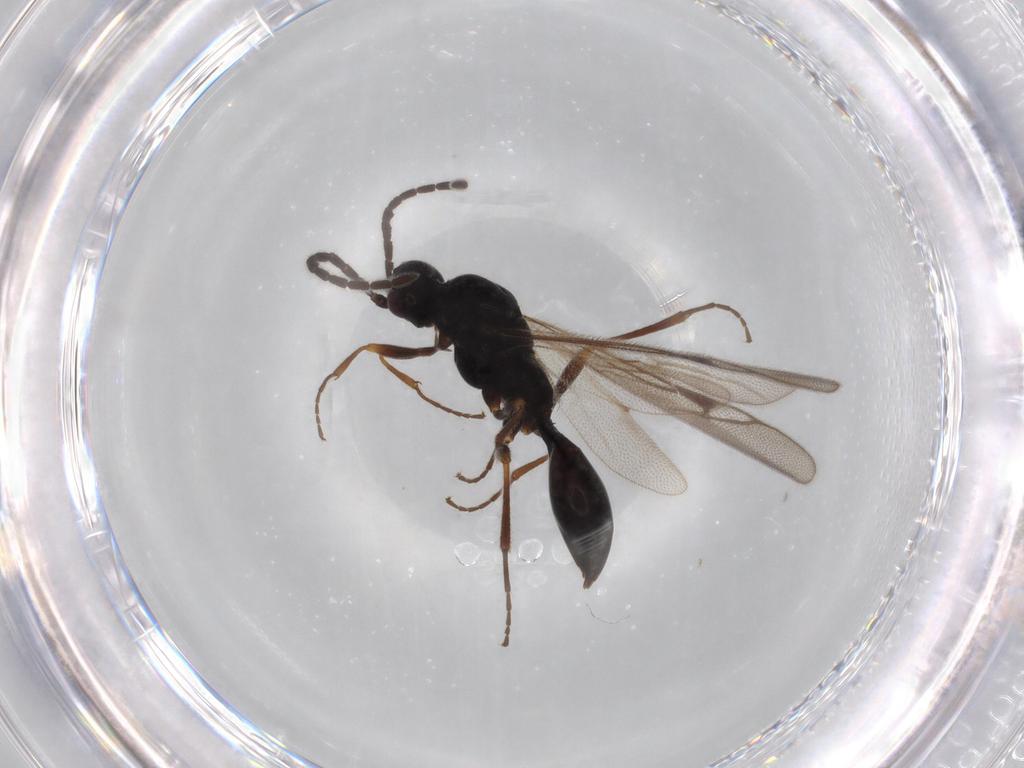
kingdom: Animalia
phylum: Arthropoda
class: Insecta
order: Hymenoptera
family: Proctotrupidae
